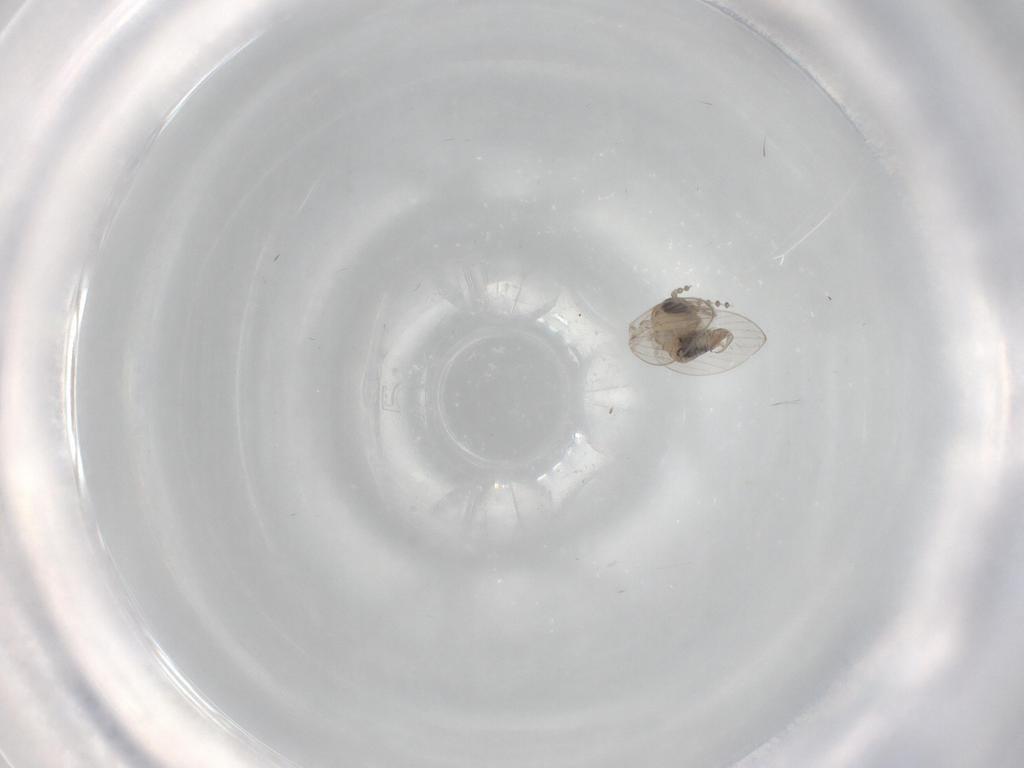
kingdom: Animalia
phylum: Arthropoda
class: Insecta
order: Diptera
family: Psychodidae
